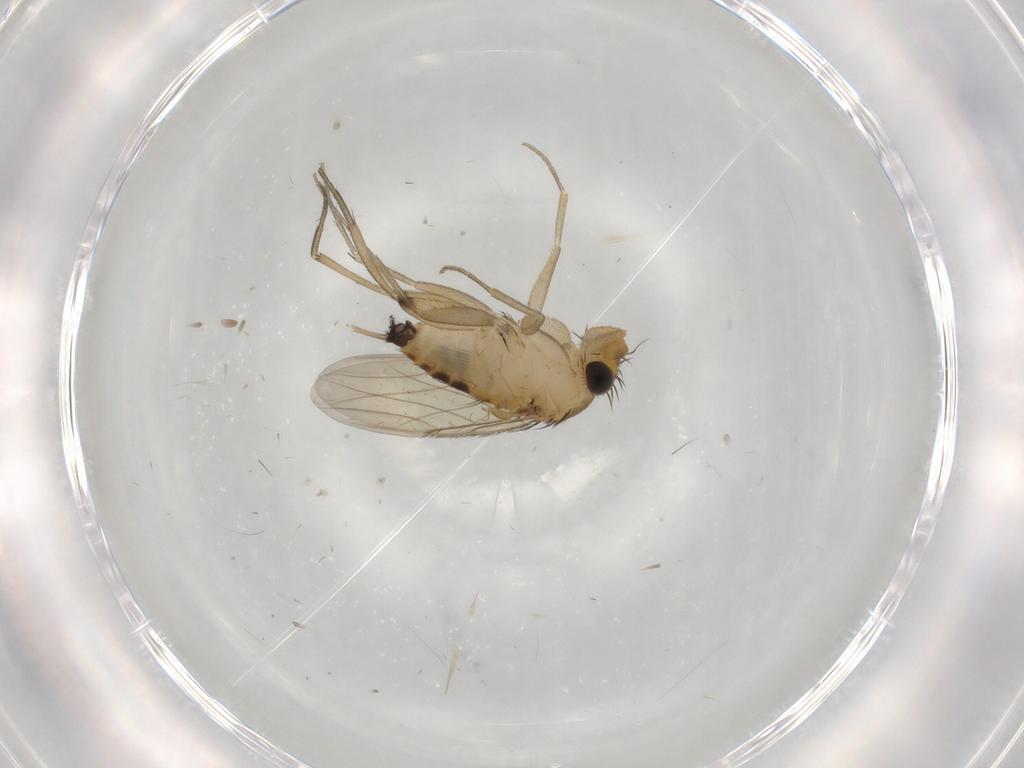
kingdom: Animalia
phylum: Arthropoda
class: Insecta
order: Diptera
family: Phoridae
